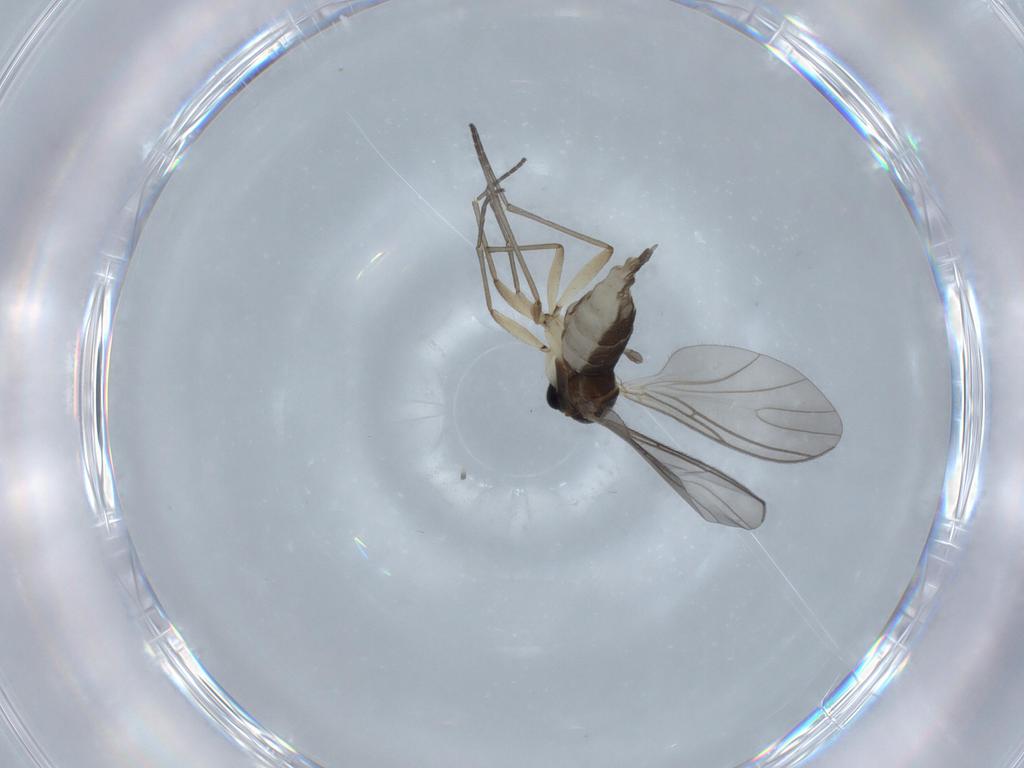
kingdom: Animalia
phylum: Arthropoda
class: Insecta
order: Diptera
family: Sciaridae
